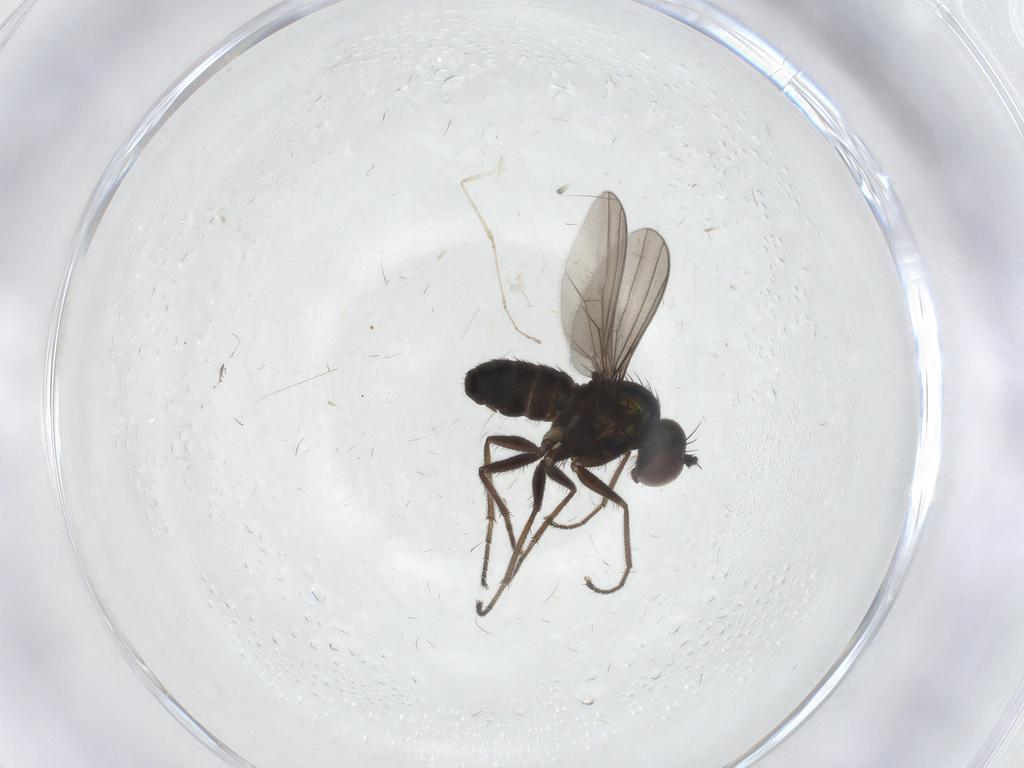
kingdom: Animalia
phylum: Arthropoda
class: Insecta
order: Diptera
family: Dolichopodidae
